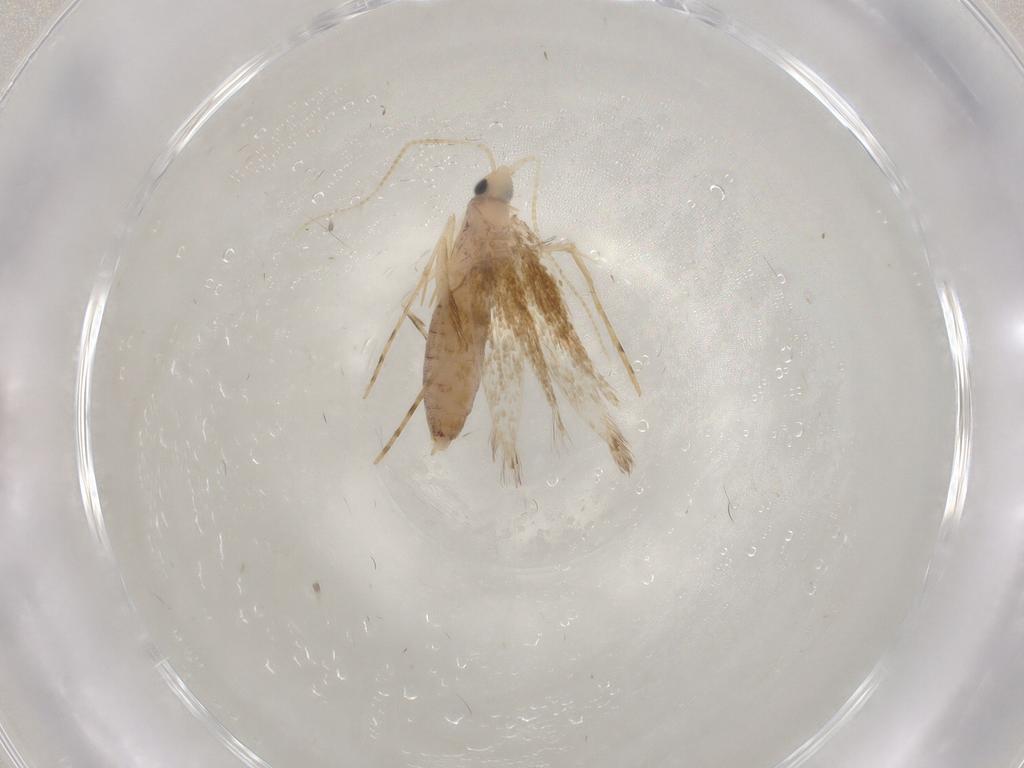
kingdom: Animalia
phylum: Arthropoda
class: Insecta
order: Lepidoptera
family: Lyonetiidae
